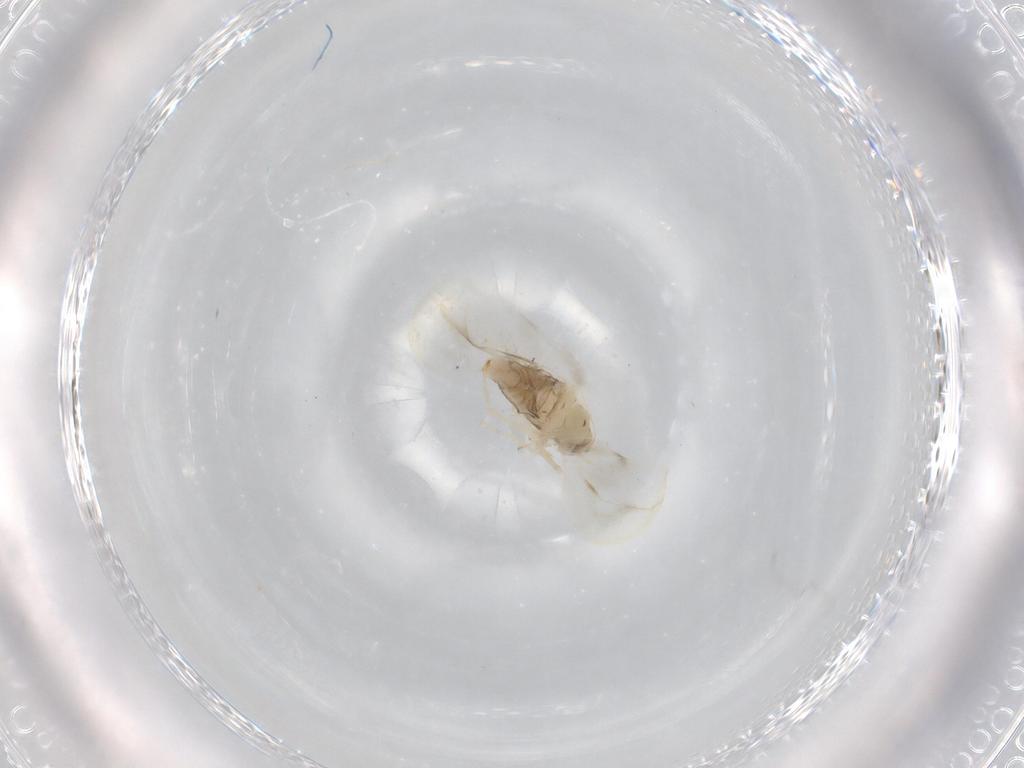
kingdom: Animalia
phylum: Arthropoda
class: Insecta
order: Hemiptera
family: Aleyrodidae
